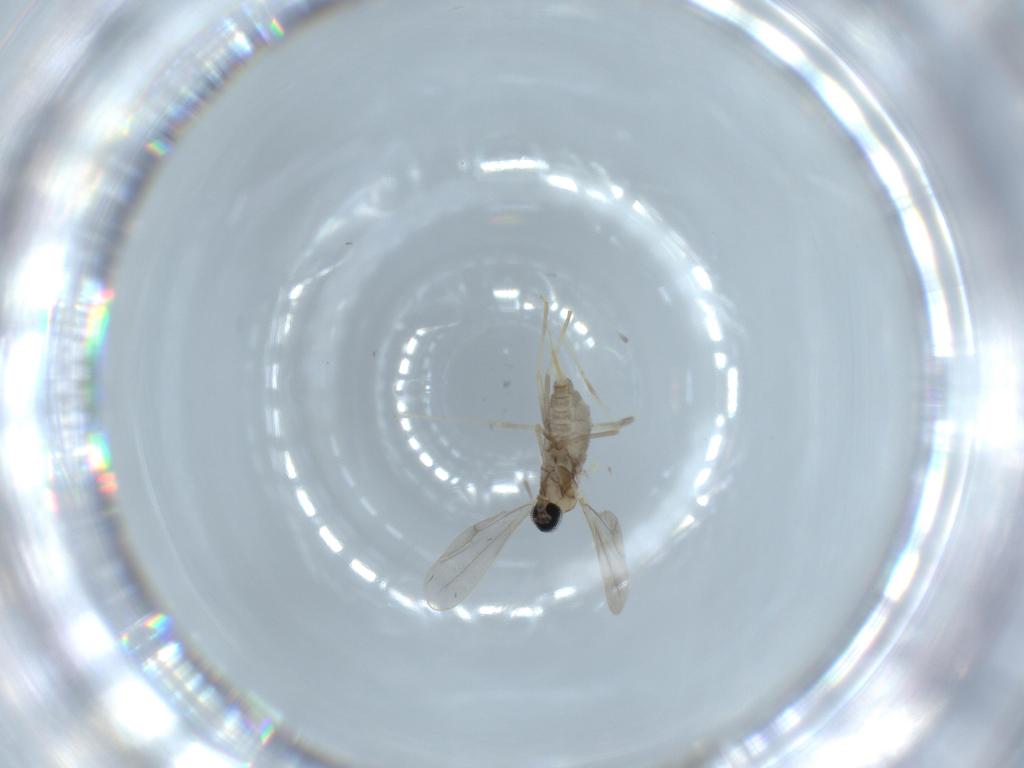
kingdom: Animalia
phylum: Arthropoda
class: Insecta
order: Diptera
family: Cecidomyiidae
